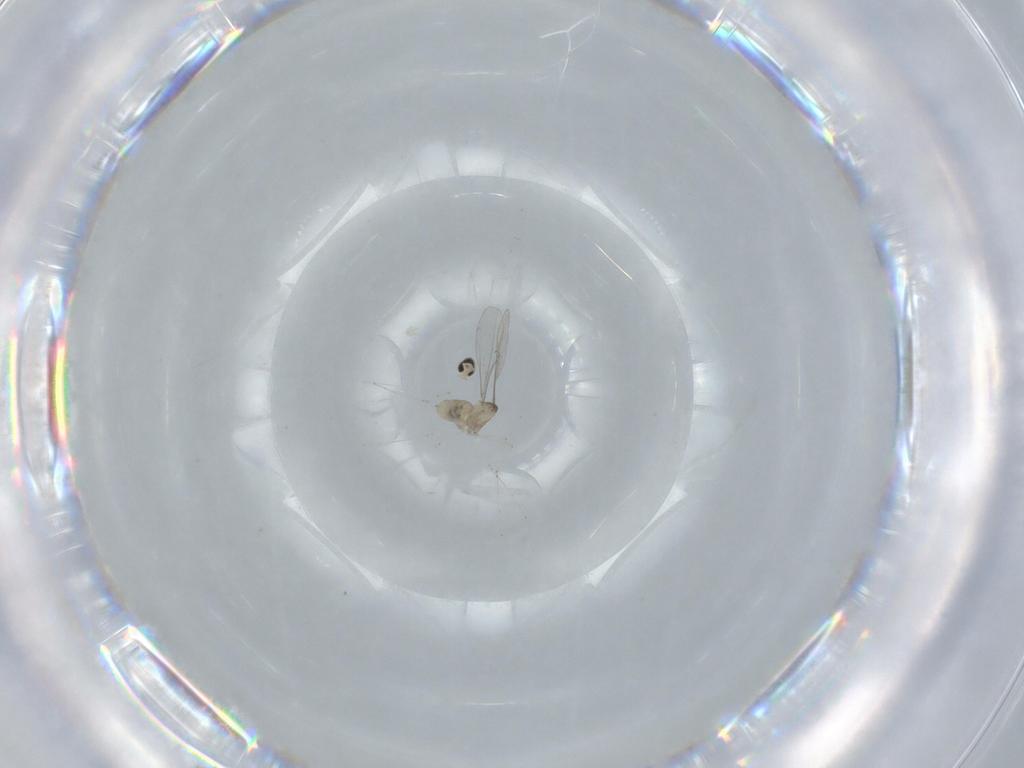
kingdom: Animalia
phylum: Arthropoda
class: Insecta
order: Diptera
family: Cecidomyiidae
